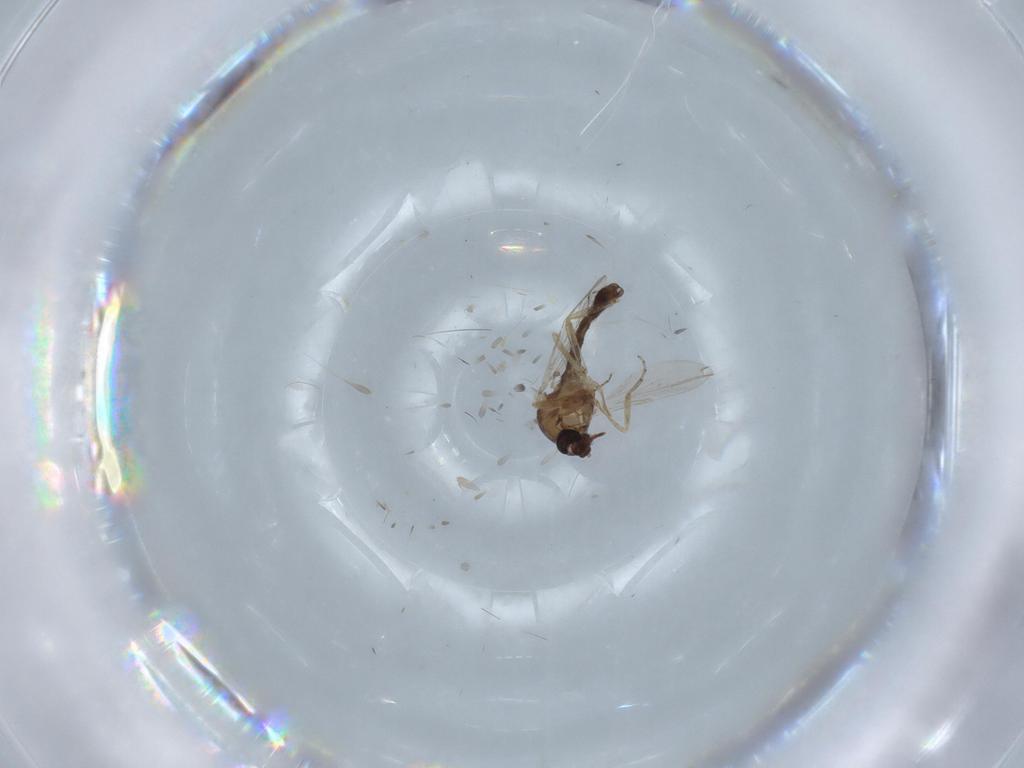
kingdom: Animalia
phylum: Arthropoda
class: Insecta
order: Diptera
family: Ceratopogonidae
